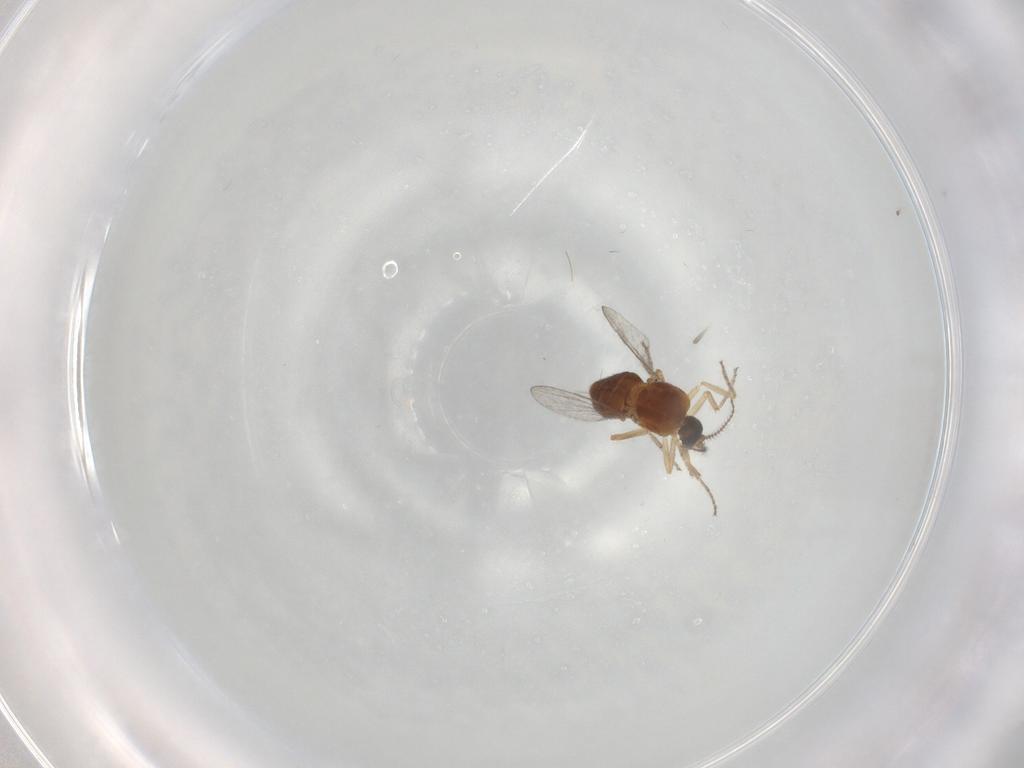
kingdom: Animalia
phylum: Arthropoda
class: Insecta
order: Diptera
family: Ceratopogonidae
